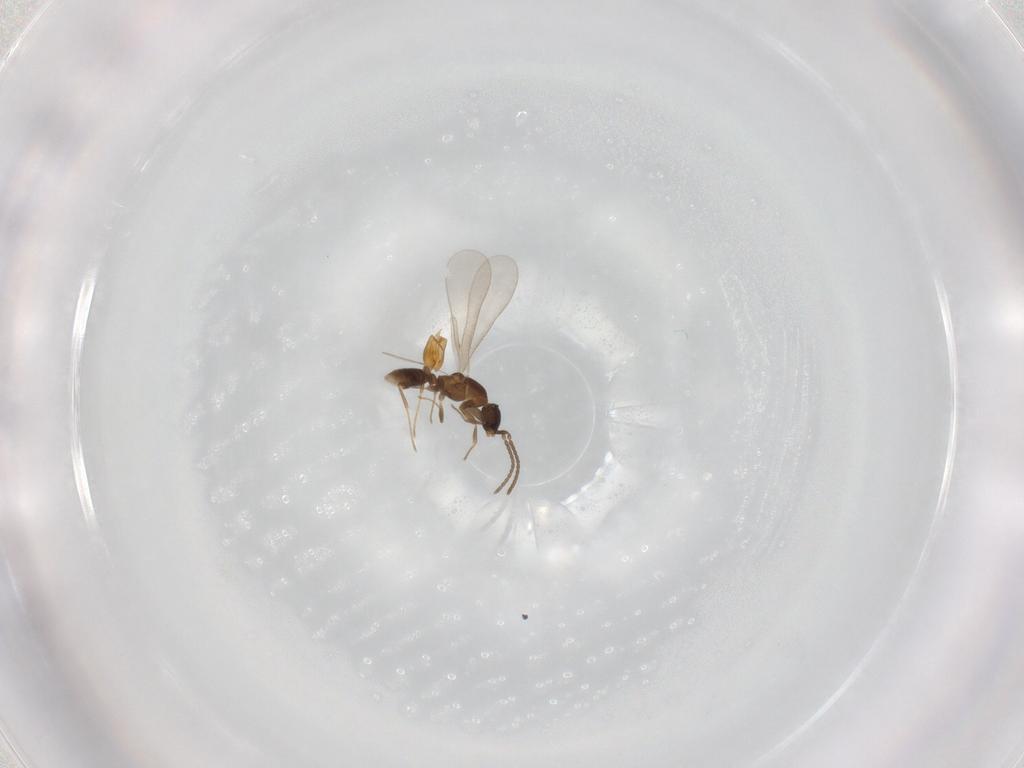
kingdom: Animalia
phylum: Arthropoda
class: Insecta
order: Hymenoptera
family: Formicidae
